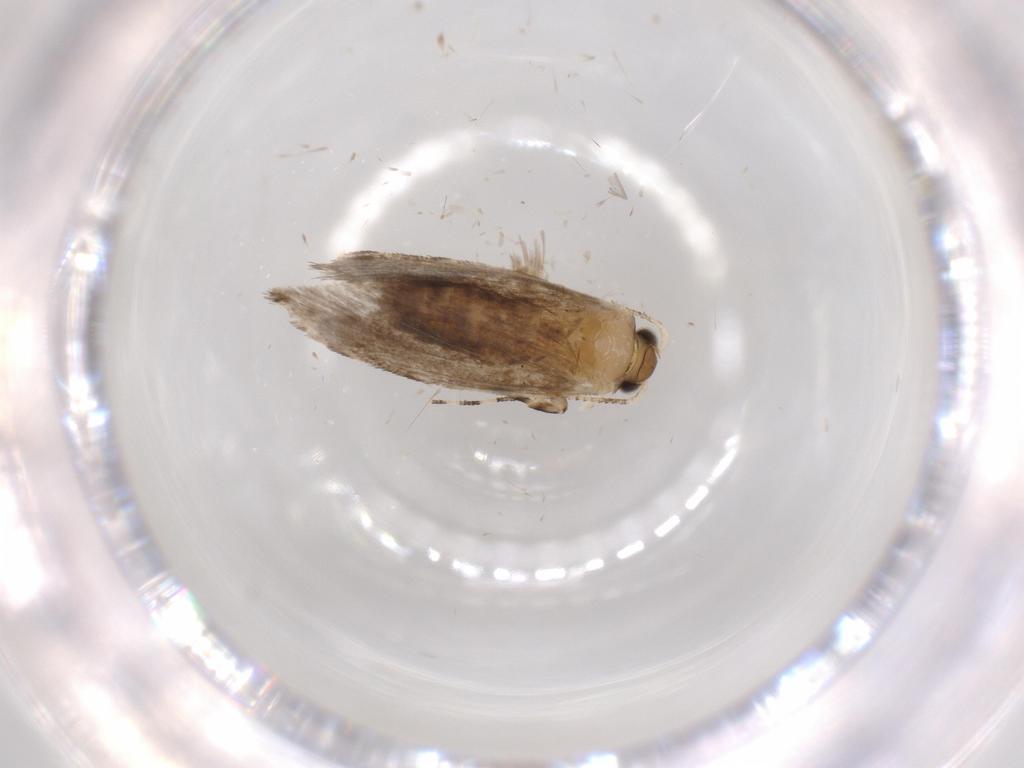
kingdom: Animalia
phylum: Arthropoda
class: Insecta
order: Lepidoptera
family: Tineidae
